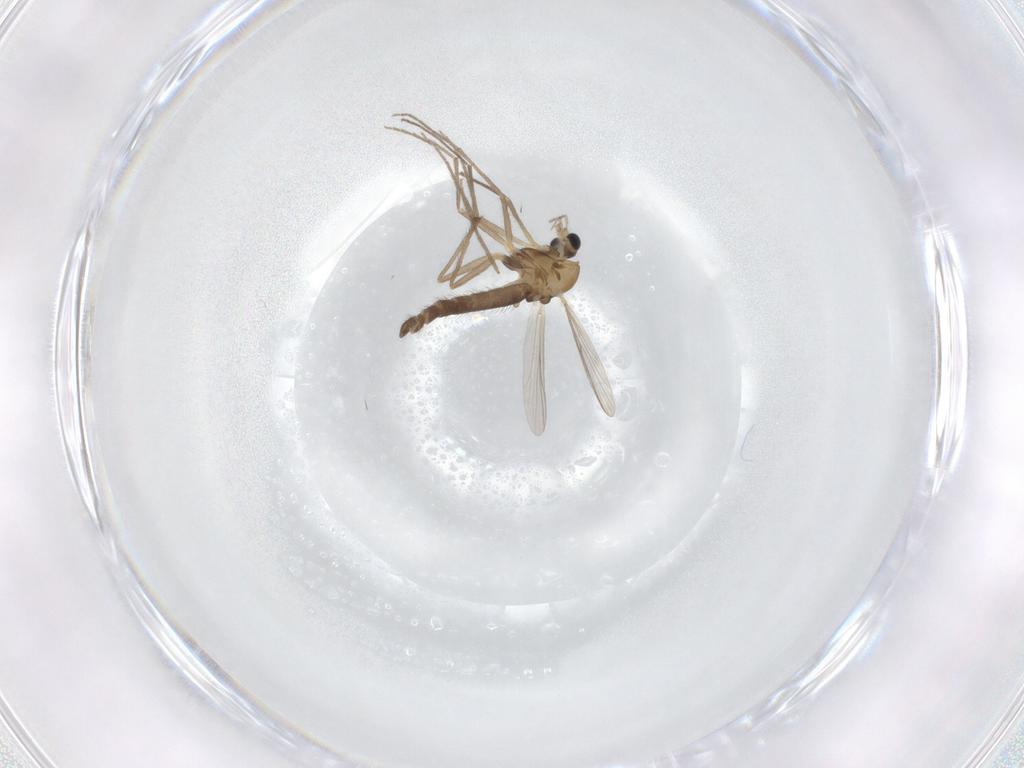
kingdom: Animalia
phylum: Arthropoda
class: Insecta
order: Diptera
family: Chironomidae
